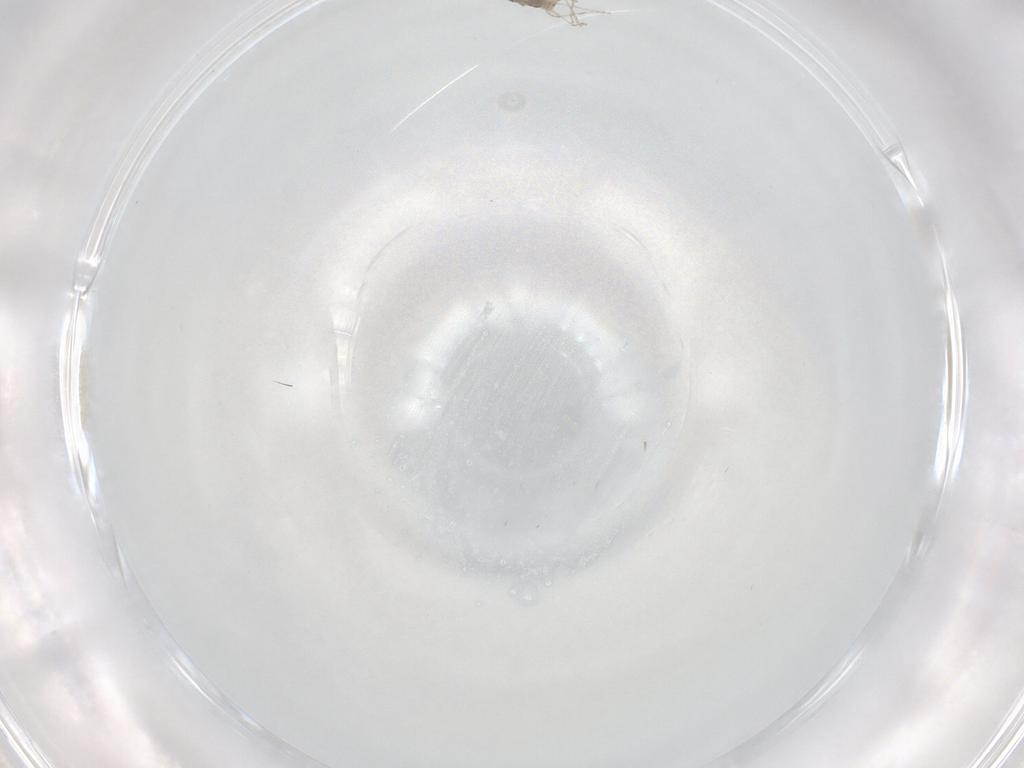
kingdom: Animalia
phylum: Arthropoda
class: Insecta
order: Diptera
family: Cecidomyiidae
